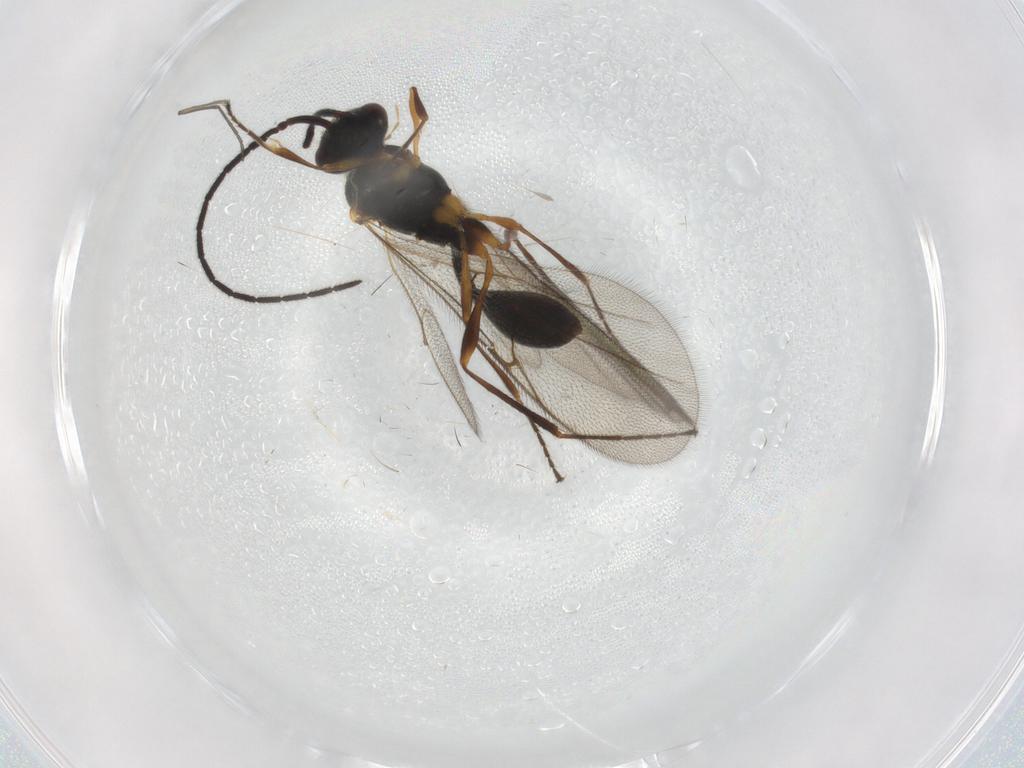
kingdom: Animalia
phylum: Arthropoda
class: Insecta
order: Hymenoptera
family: Diapriidae
